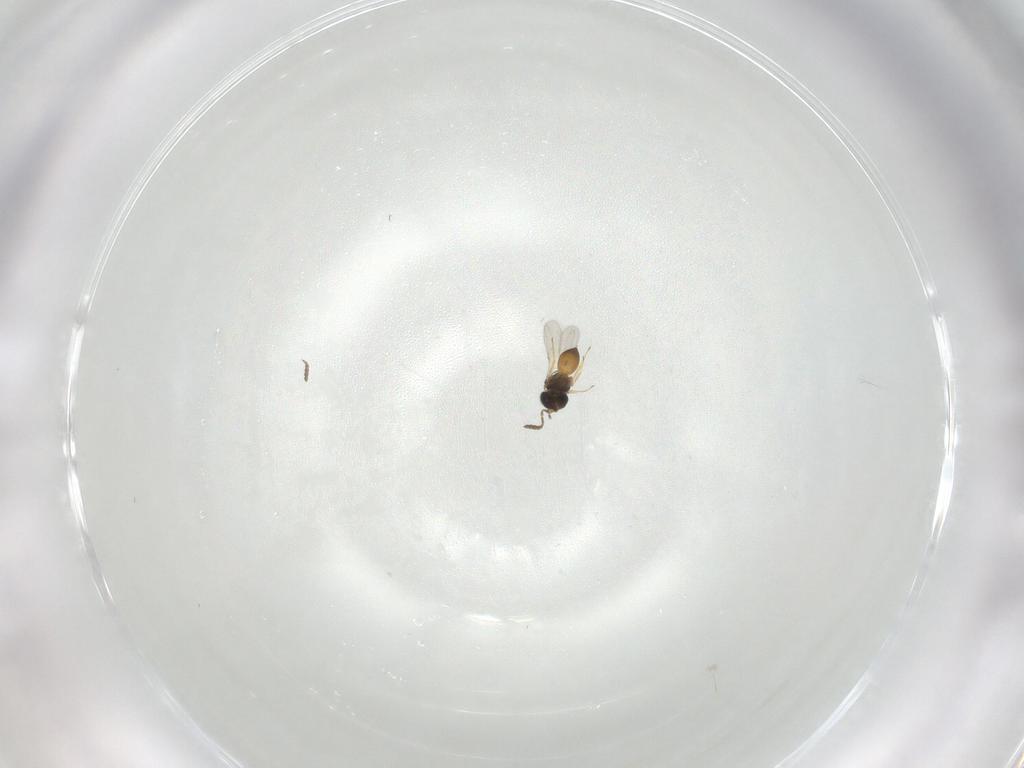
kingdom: Animalia
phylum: Arthropoda
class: Insecta
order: Hymenoptera
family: Scelionidae
